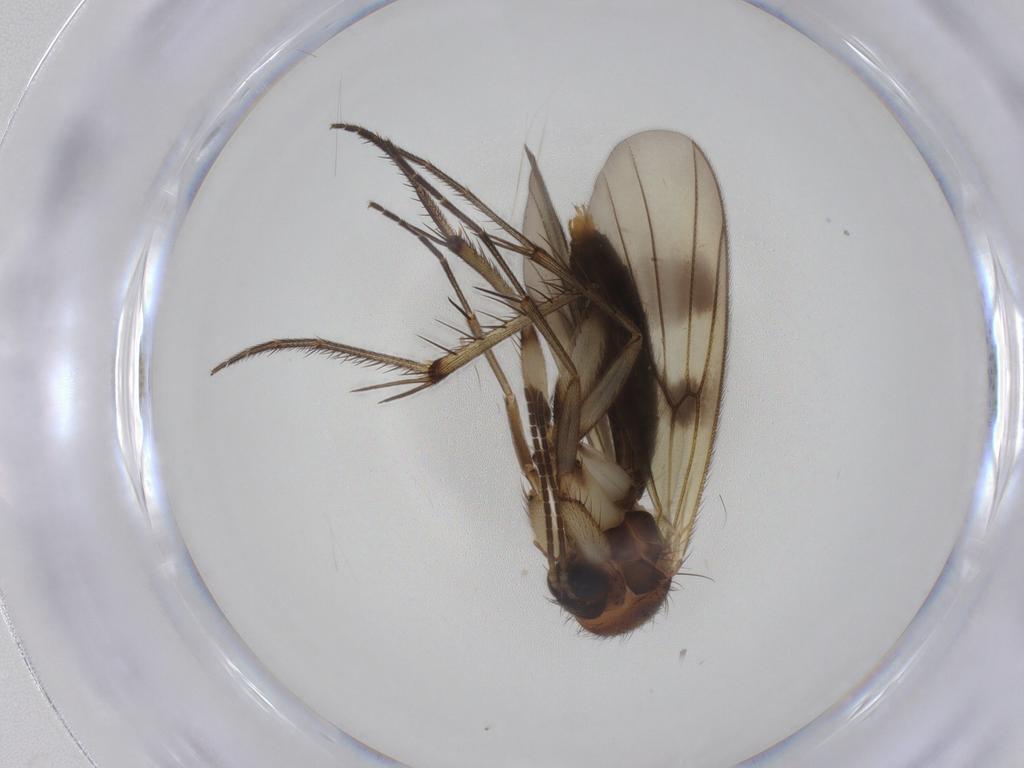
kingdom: Animalia
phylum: Arthropoda
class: Insecta
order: Diptera
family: Mycetophilidae
